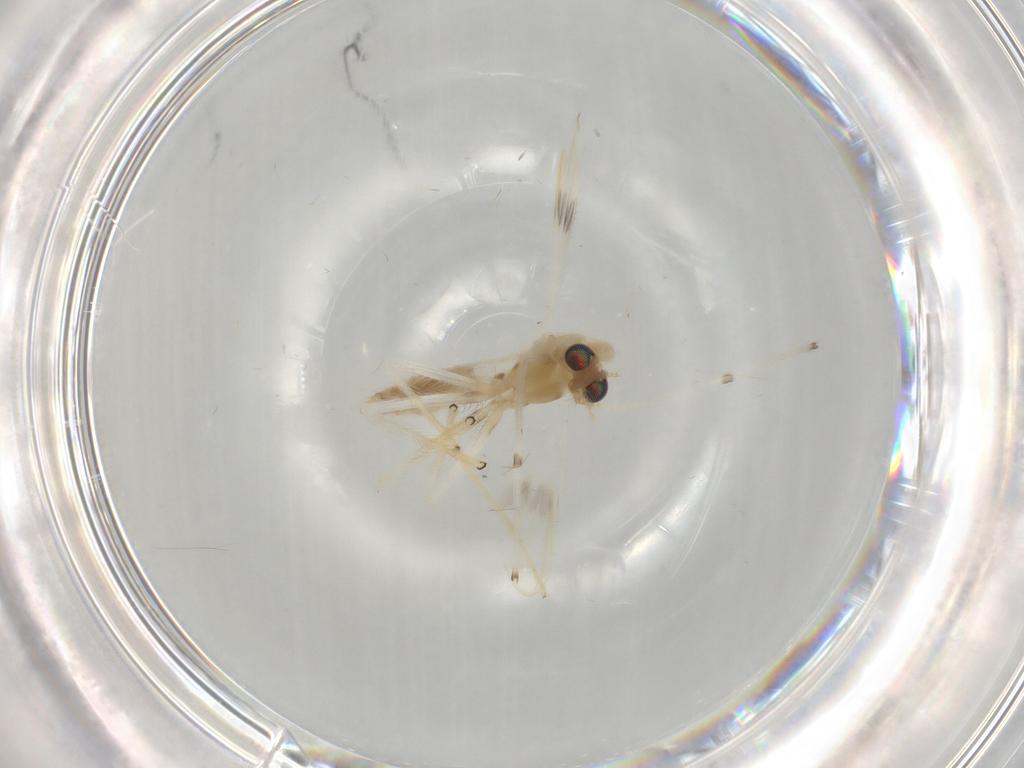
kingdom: Animalia
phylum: Arthropoda
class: Insecta
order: Diptera
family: Chironomidae
